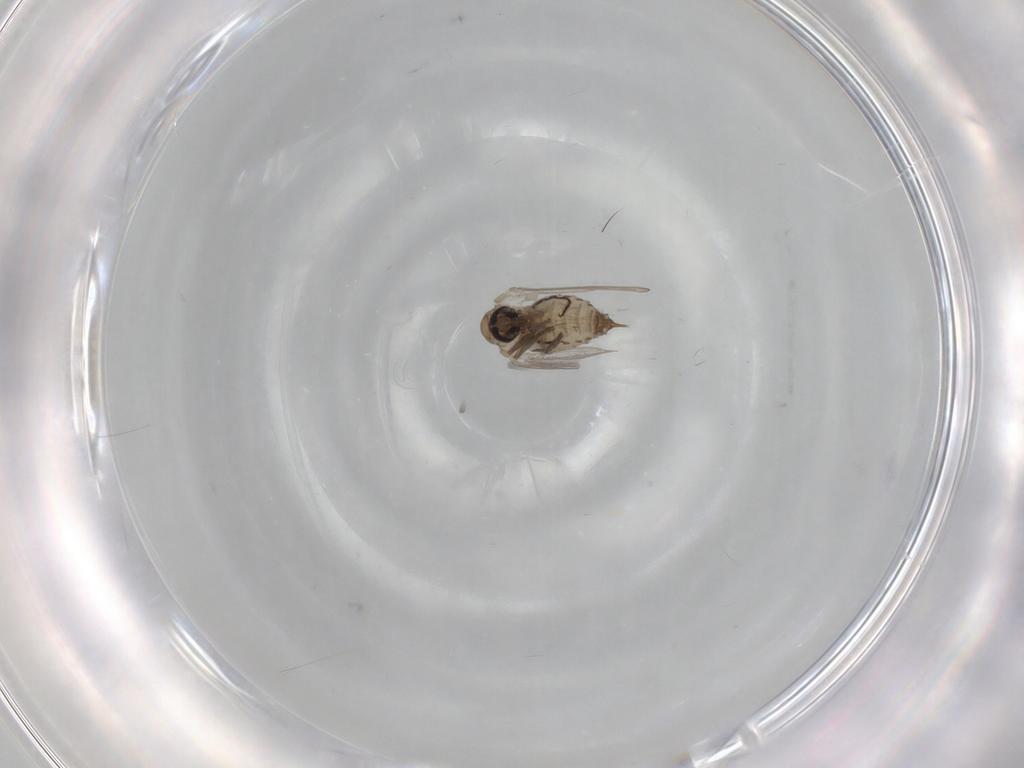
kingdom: Animalia
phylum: Arthropoda
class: Insecta
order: Diptera
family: Psychodidae
